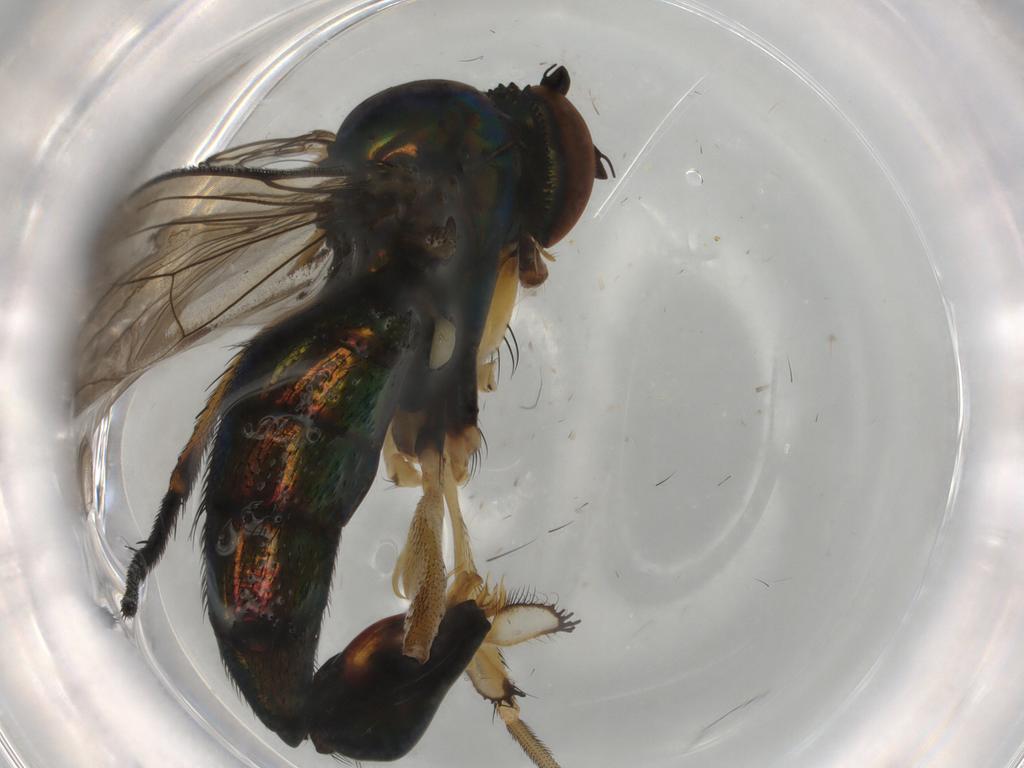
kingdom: Animalia
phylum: Arthropoda
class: Insecta
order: Diptera
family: Dolichopodidae
